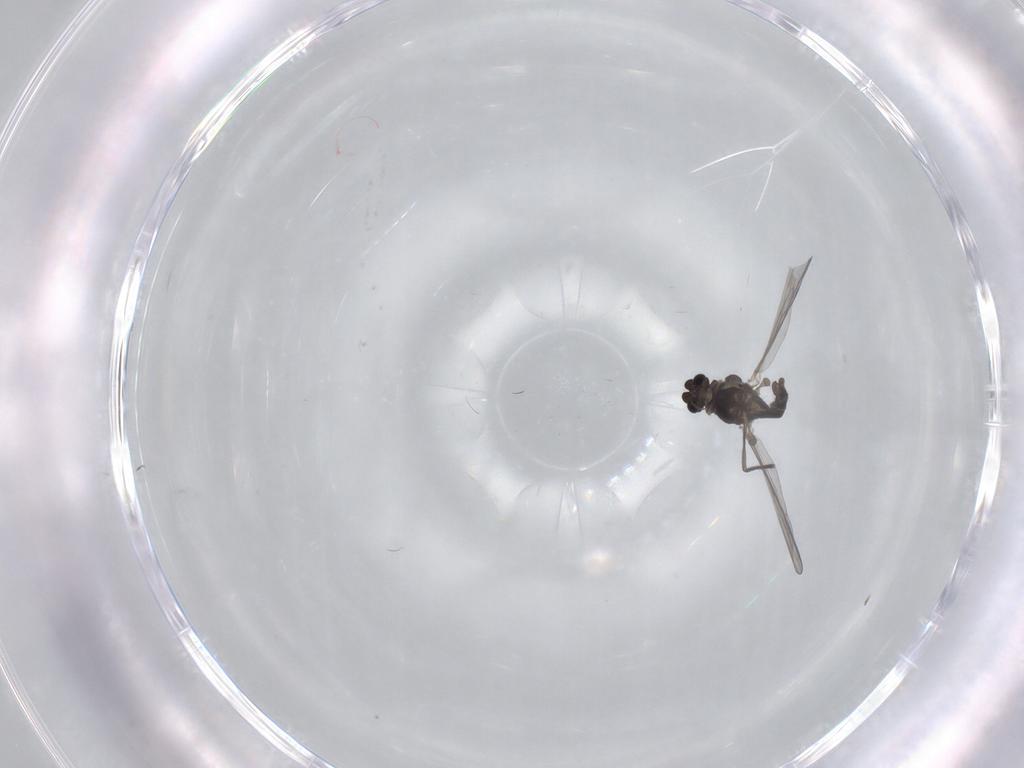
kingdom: Animalia
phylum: Arthropoda
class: Insecta
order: Diptera
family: Chironomidae
